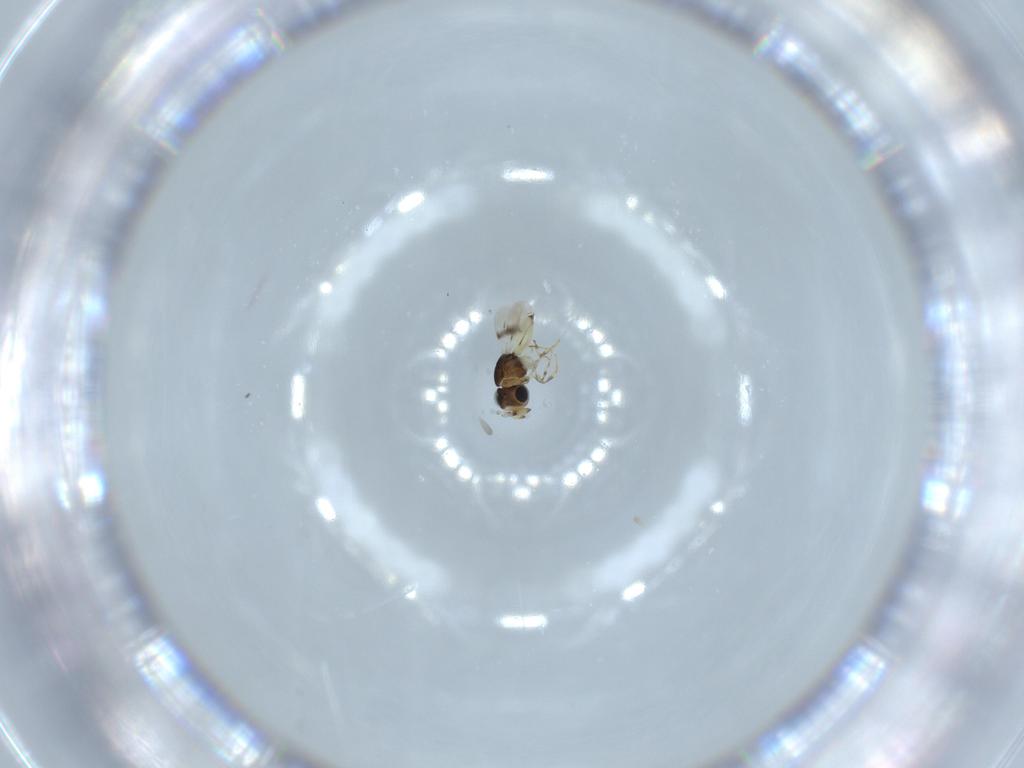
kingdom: Animalia
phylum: Arthropoda
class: Insecta
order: Hymenoptera
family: Scelionidae
